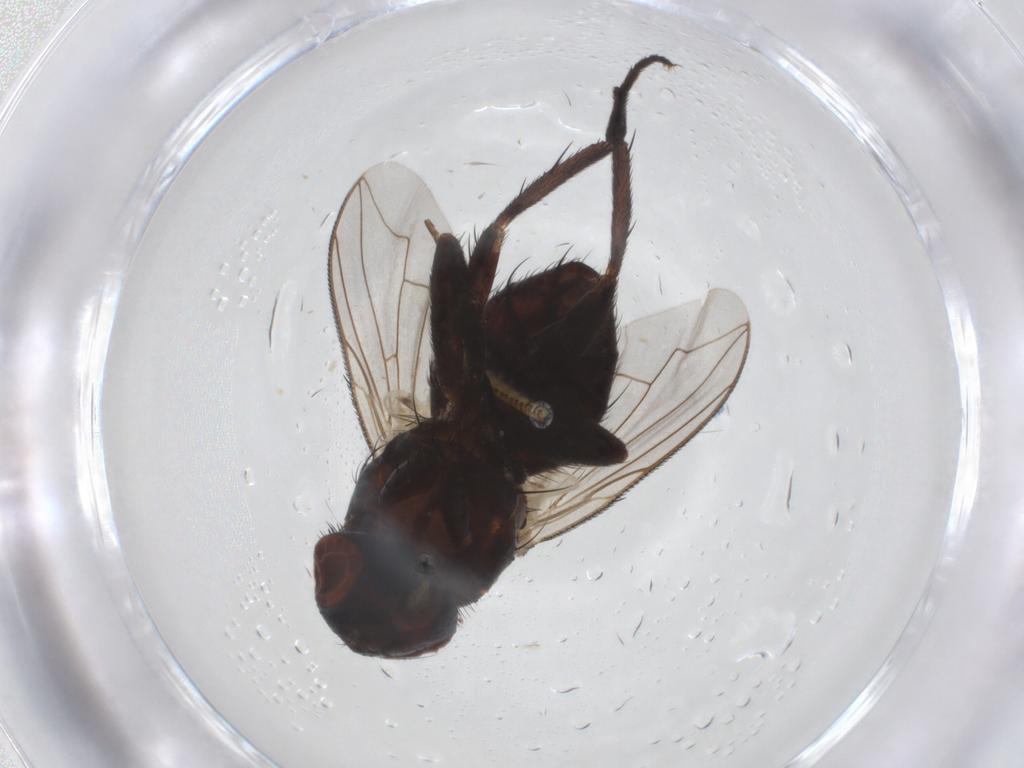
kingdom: Animalia
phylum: Arthropoda
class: Insecta
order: Diptera
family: Sarcophagidae
